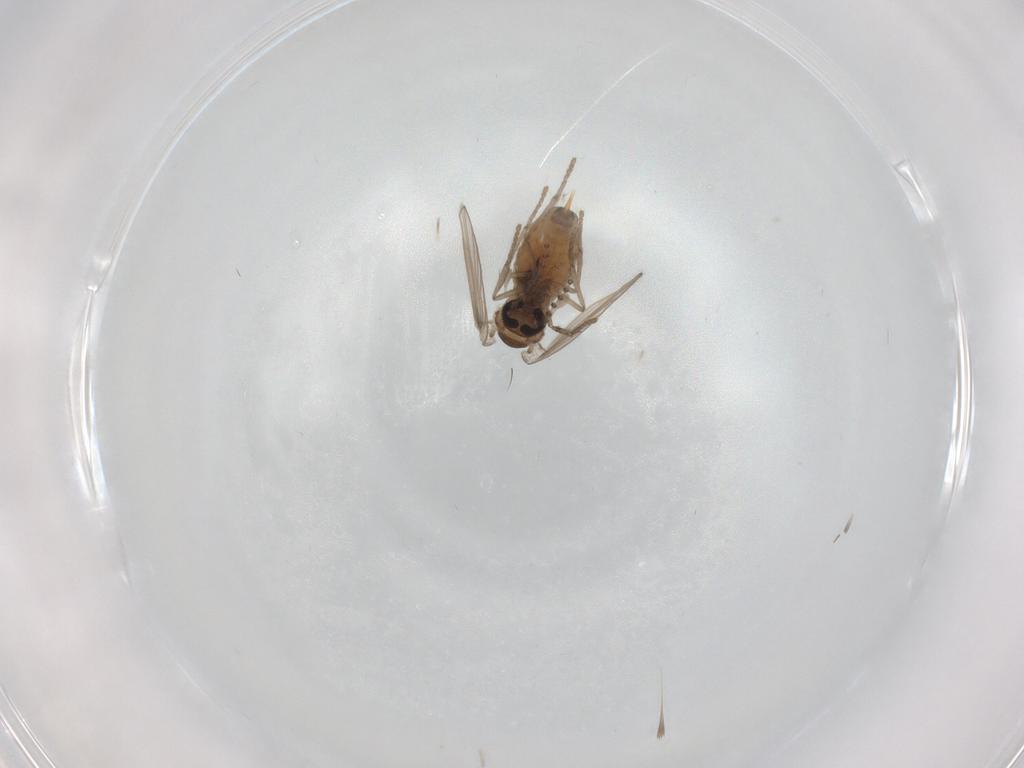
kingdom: Animalia
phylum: Arthropoda
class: Insecta
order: Diptera
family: Psychodidae
